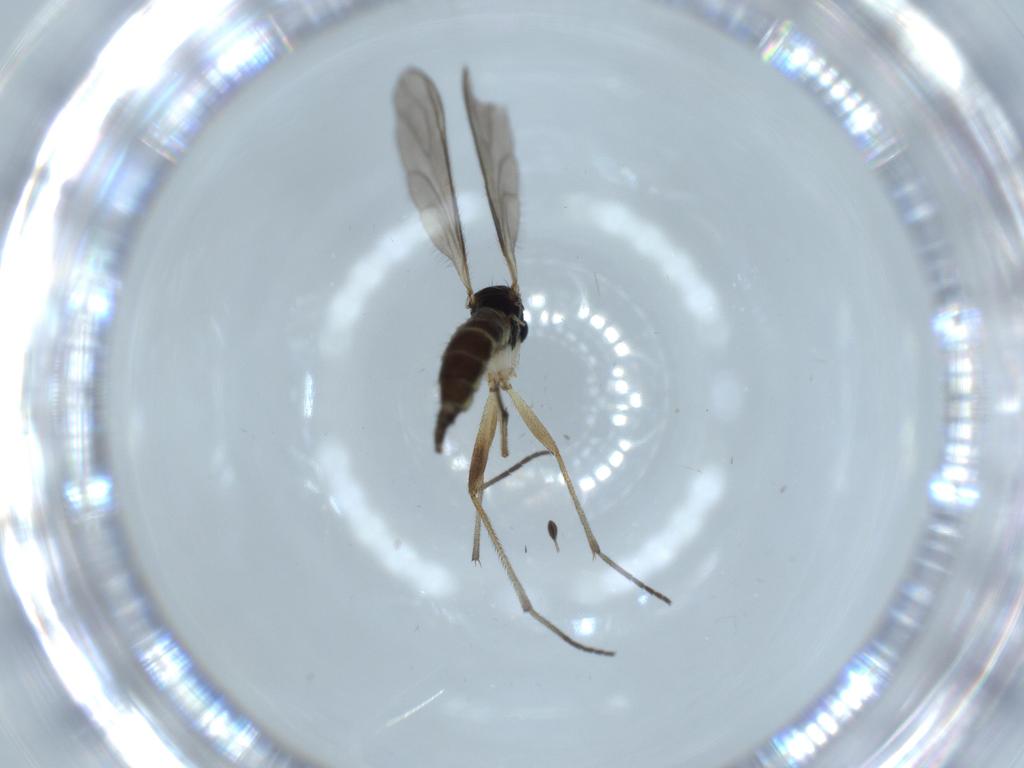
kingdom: Animalia
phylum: Arthropoda
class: Insecta
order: Diptera
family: Sciaridae
